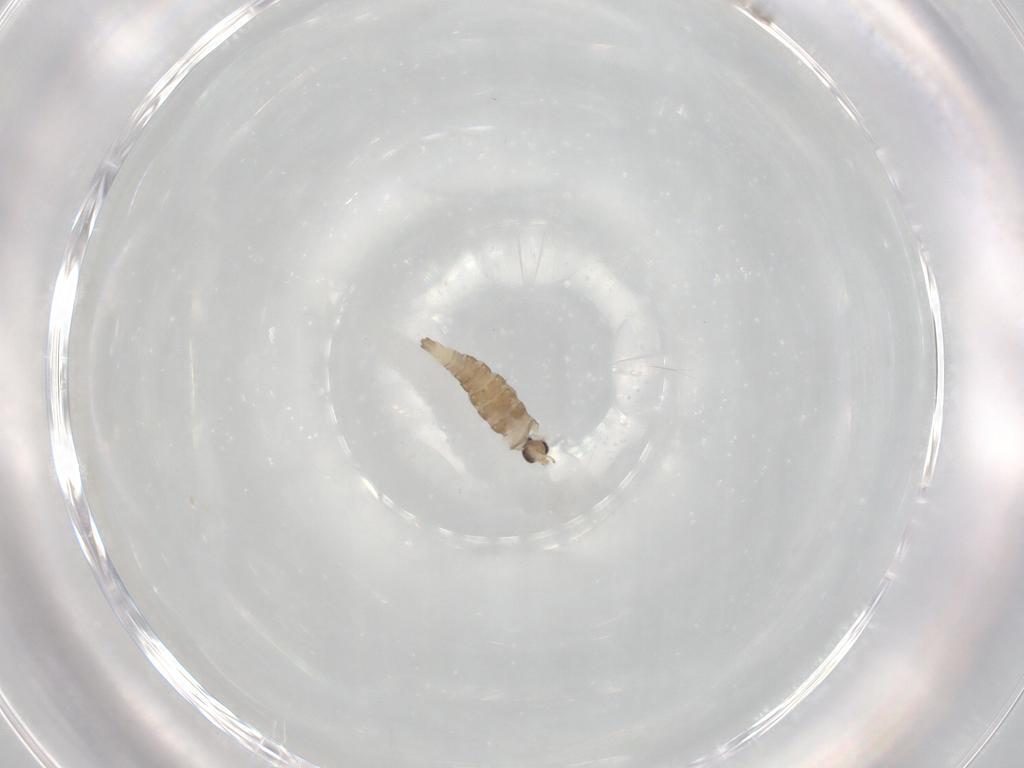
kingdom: Animalia
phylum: Arthropoda
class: Insecta
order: Diptera
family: Cecidomyiidae
